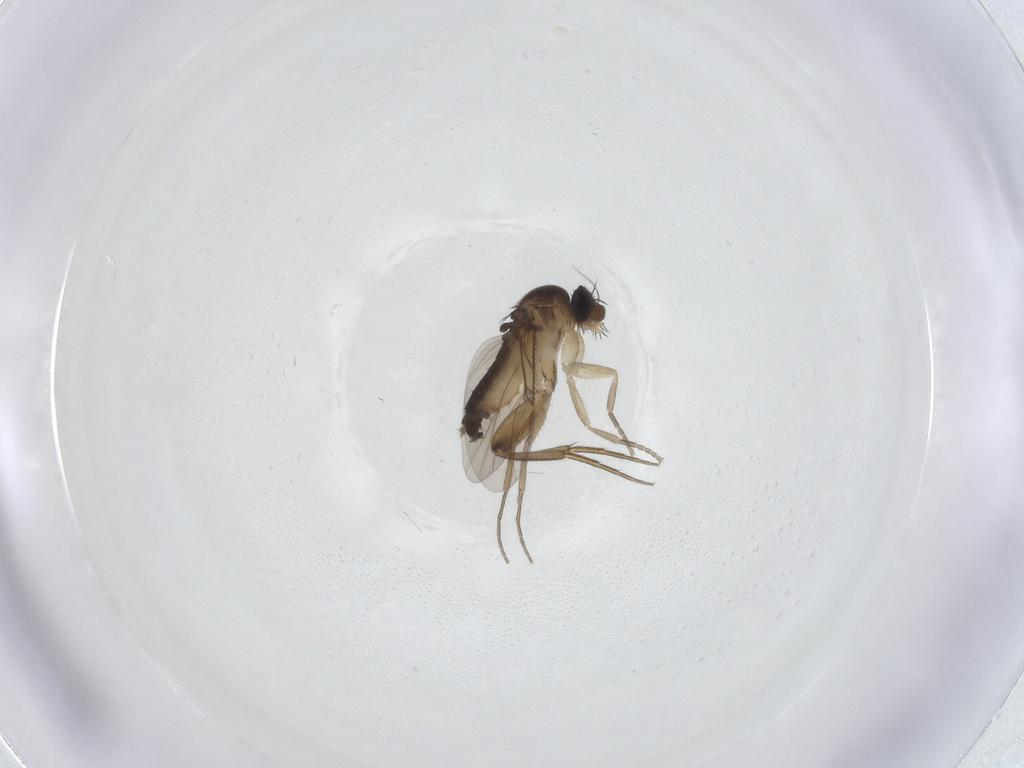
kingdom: Animalia
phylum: Arthropoda
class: Insecta
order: Diptera
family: Phoridae
